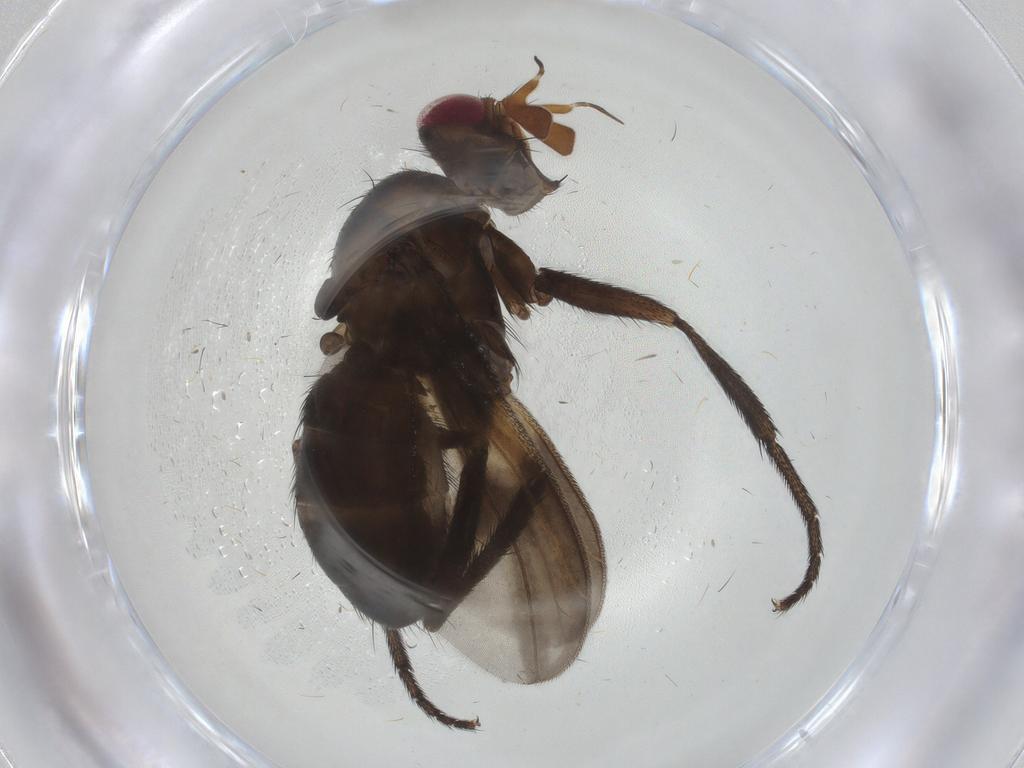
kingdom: Animalia
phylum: Arthropoda
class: Insecta
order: Diptera
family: Calliphoridae
